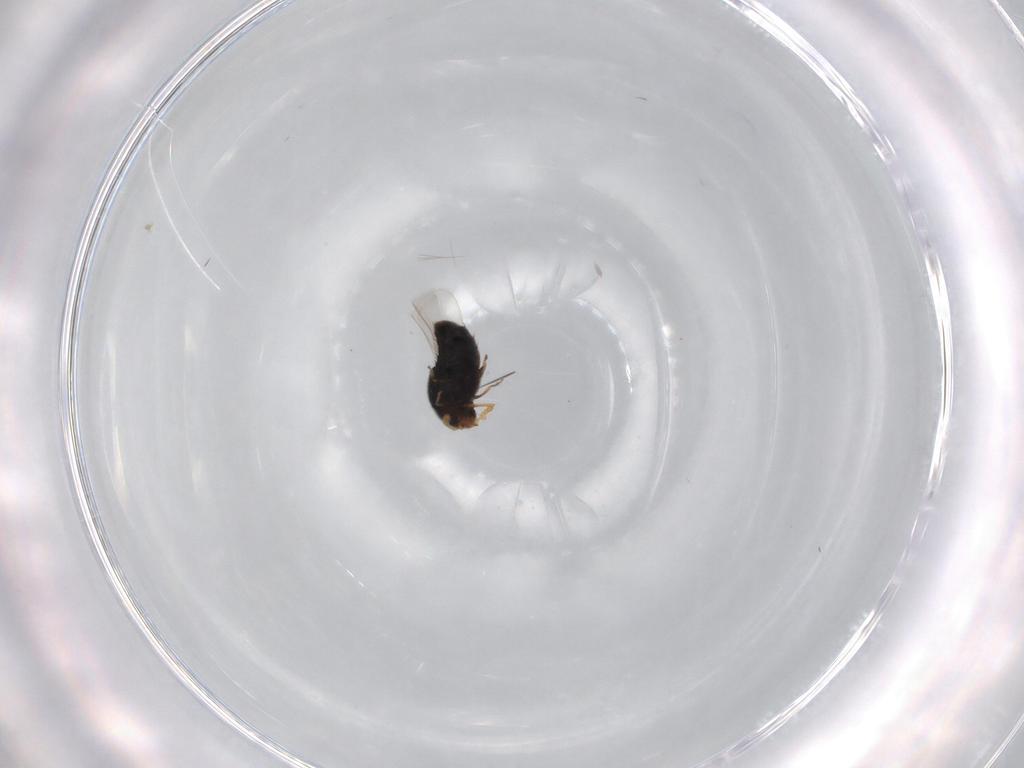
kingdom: Animalia
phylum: Arthropoda
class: Insecta
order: Coleoptera
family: Staphylinidae
